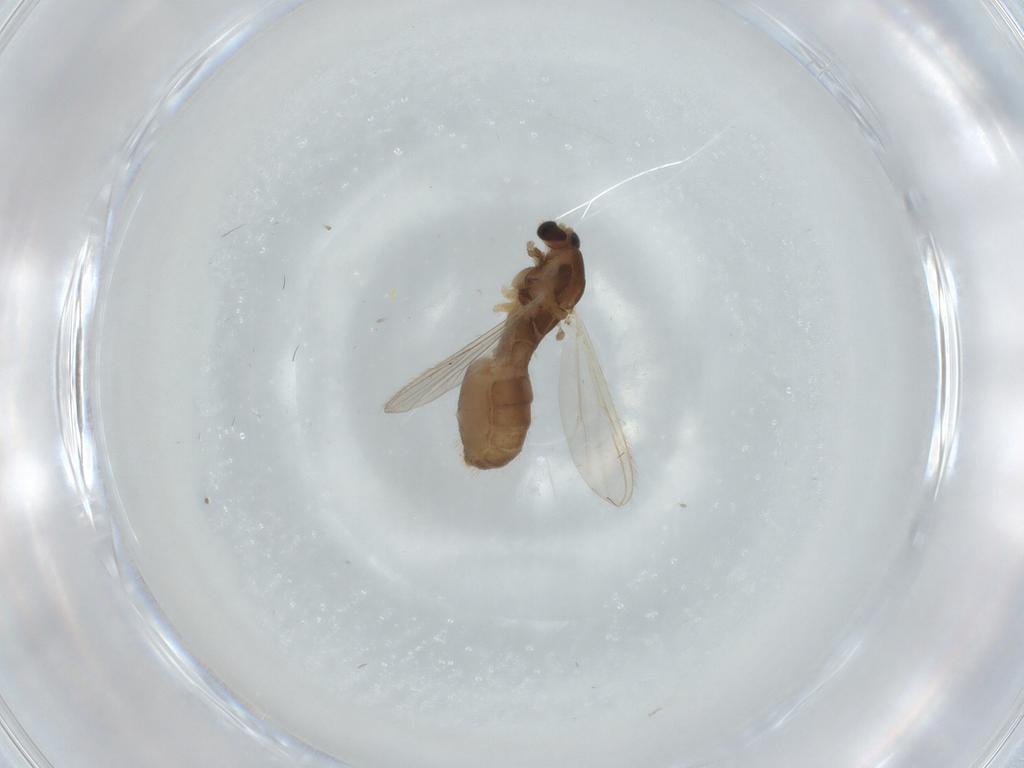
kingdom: Animalia
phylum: Arthropoda
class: Insecta
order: Diptera
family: Chironomidae
